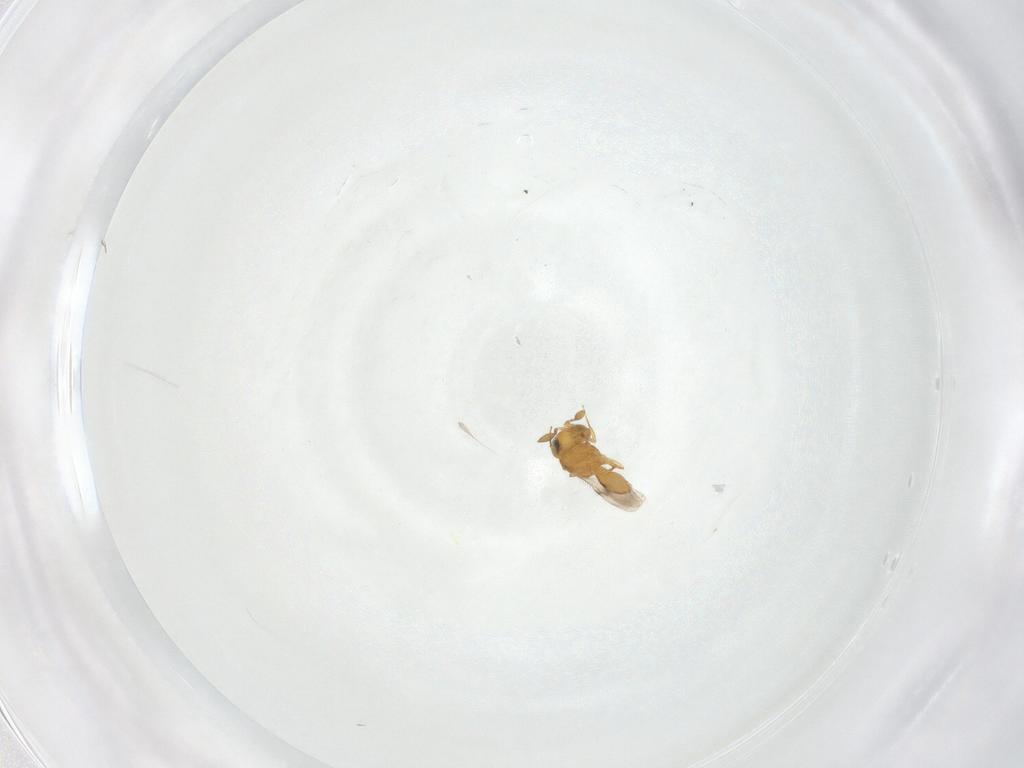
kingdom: Animalia
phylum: Arthropoda
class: Insecta
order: Hymenoptera
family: Scelionidae
